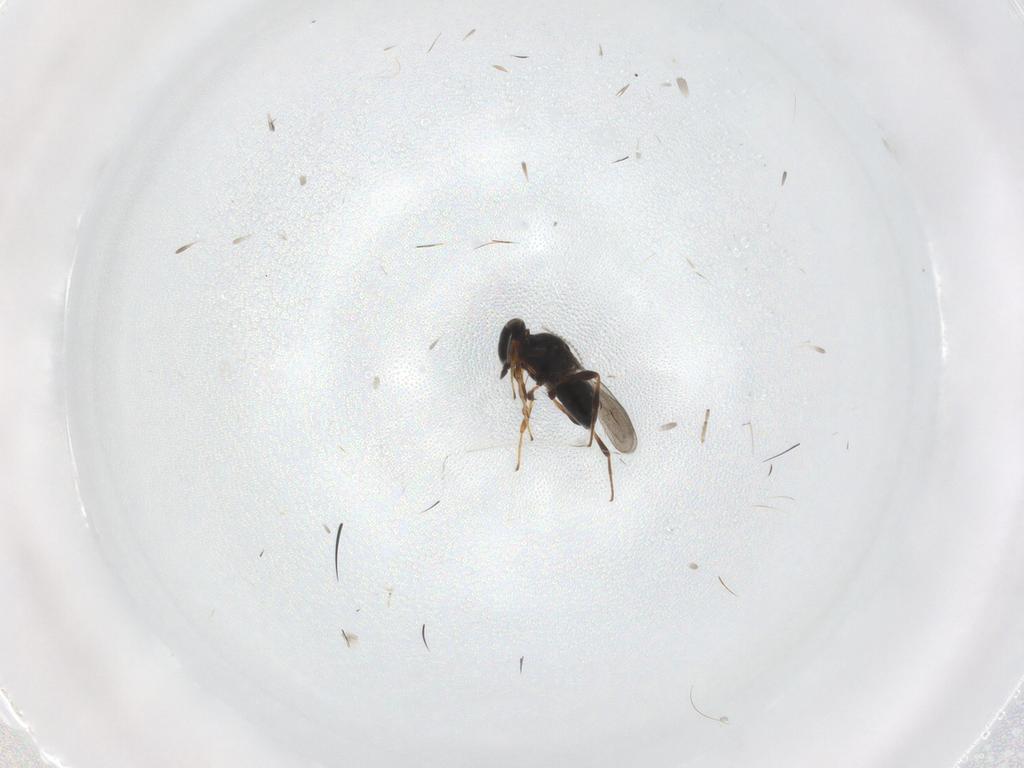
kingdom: Animalia
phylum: Arthropoda
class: Insecta
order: Hymenoptera
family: Platygastridae
